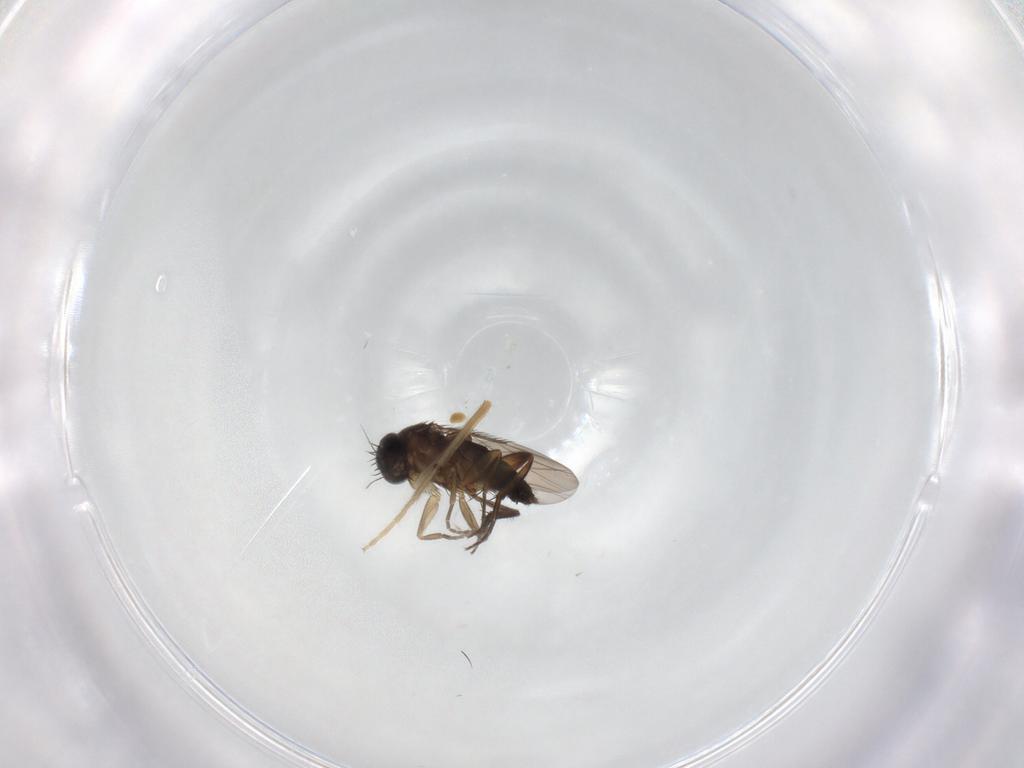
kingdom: Animalia
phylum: Arthropoda
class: Insecta
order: Diptera
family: Phoridae
